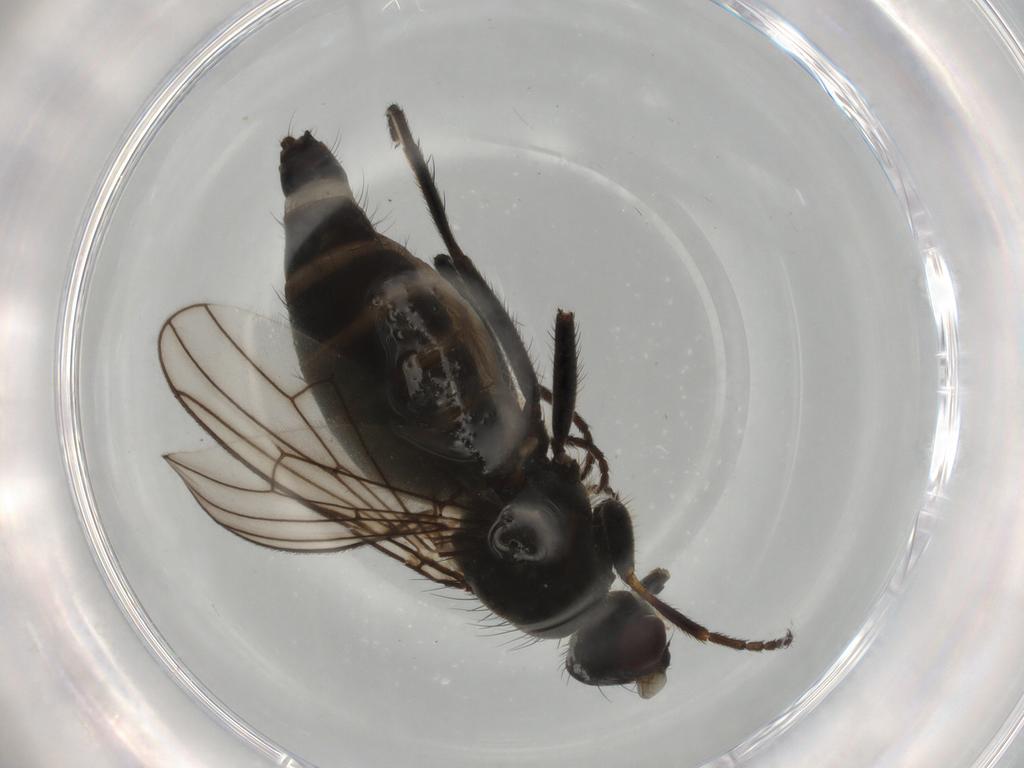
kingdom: Animalia
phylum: Arthropoda
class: Insecta
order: Diptera
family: Scathophagidae
